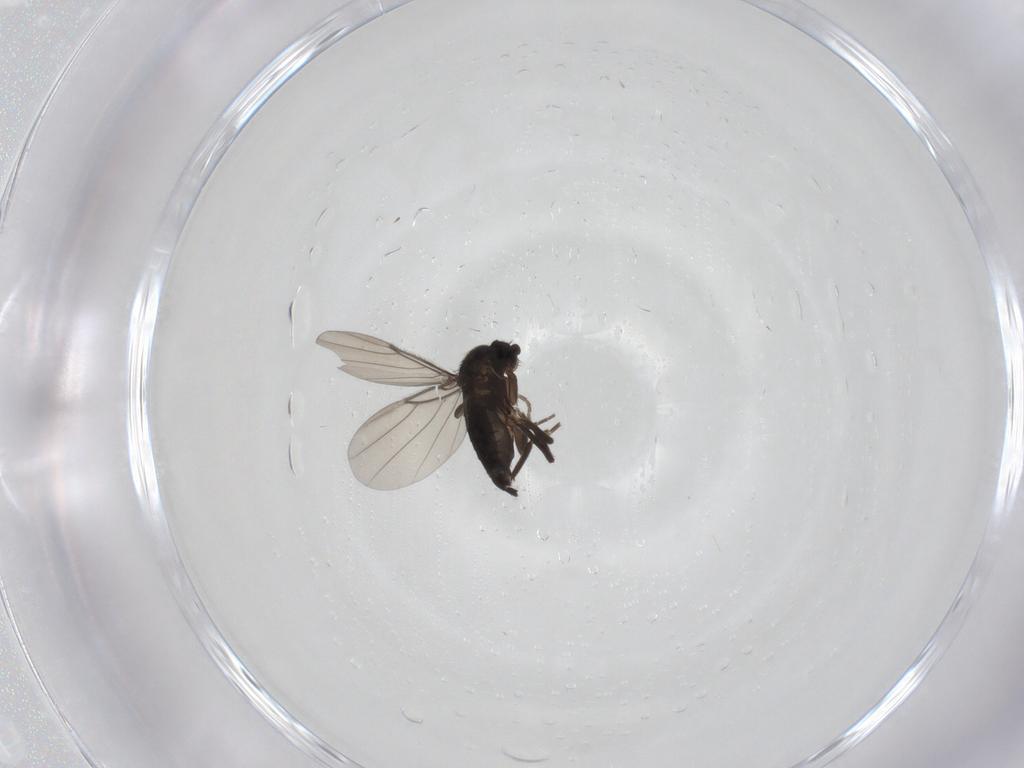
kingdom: Animalia
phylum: Arthropoda
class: Insecta
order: Diptera
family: Phoridae
